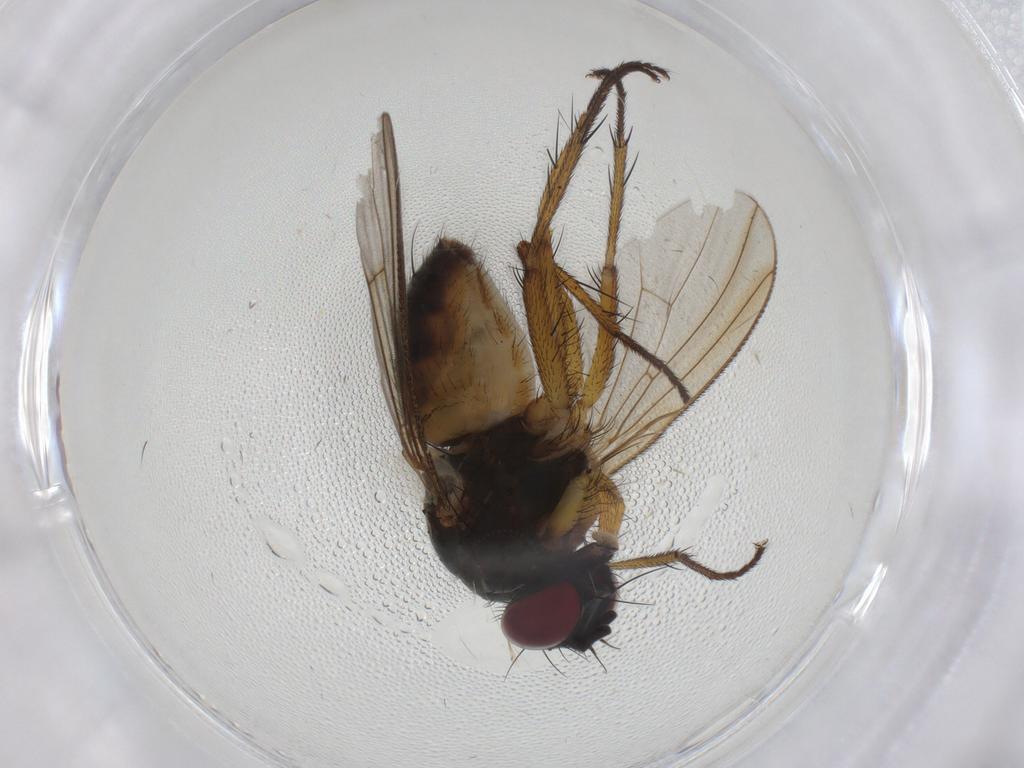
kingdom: Animalia
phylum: Arthropoda
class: Insecta
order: Diptera
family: Muscidae
